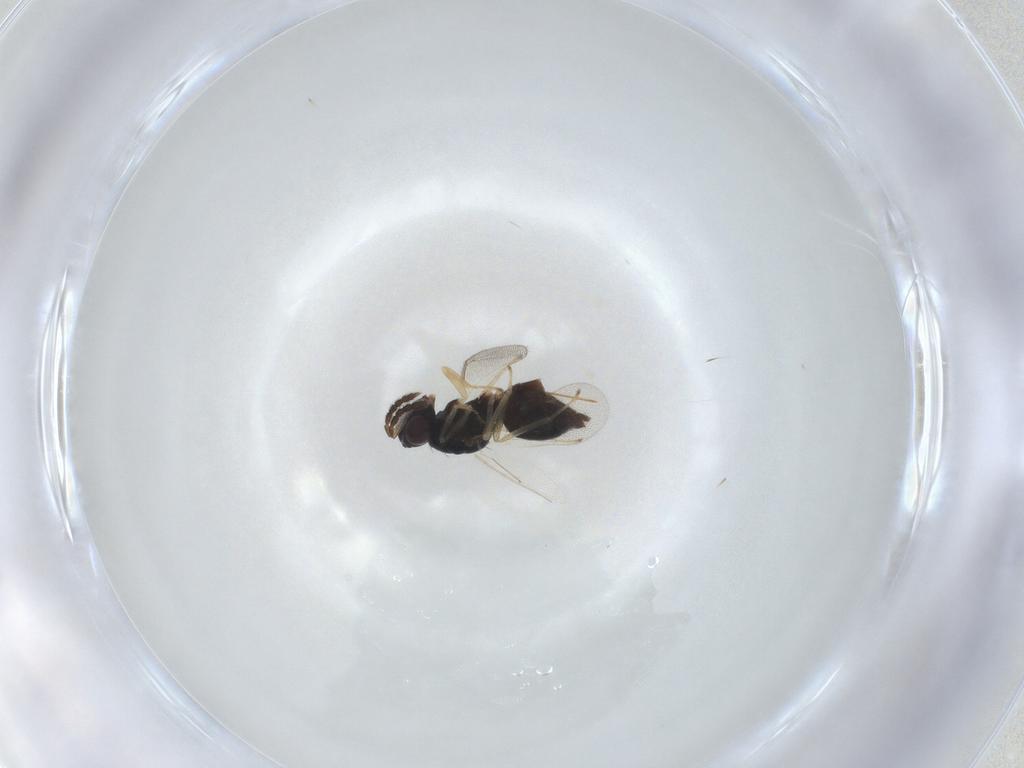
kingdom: Animalia
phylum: Arthropoda
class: Insecta
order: Hymenoptera
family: Eulophidae
